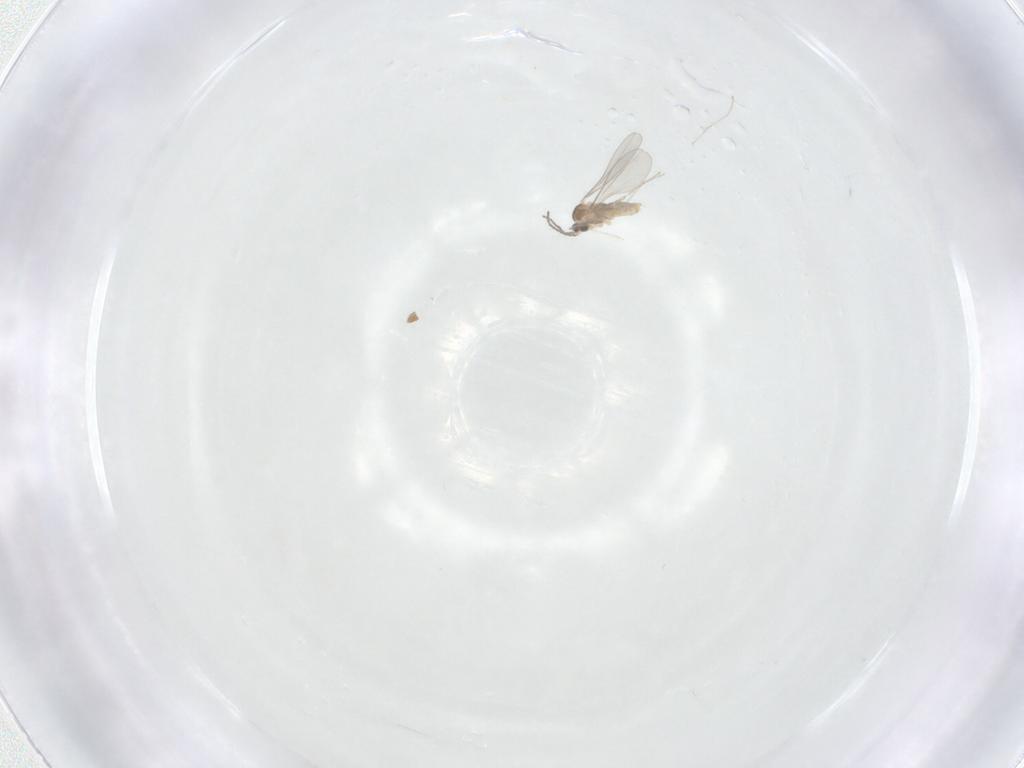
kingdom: Animalia
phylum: Arthropoda
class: Insecta
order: Diptera
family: Cecidomyiidae
